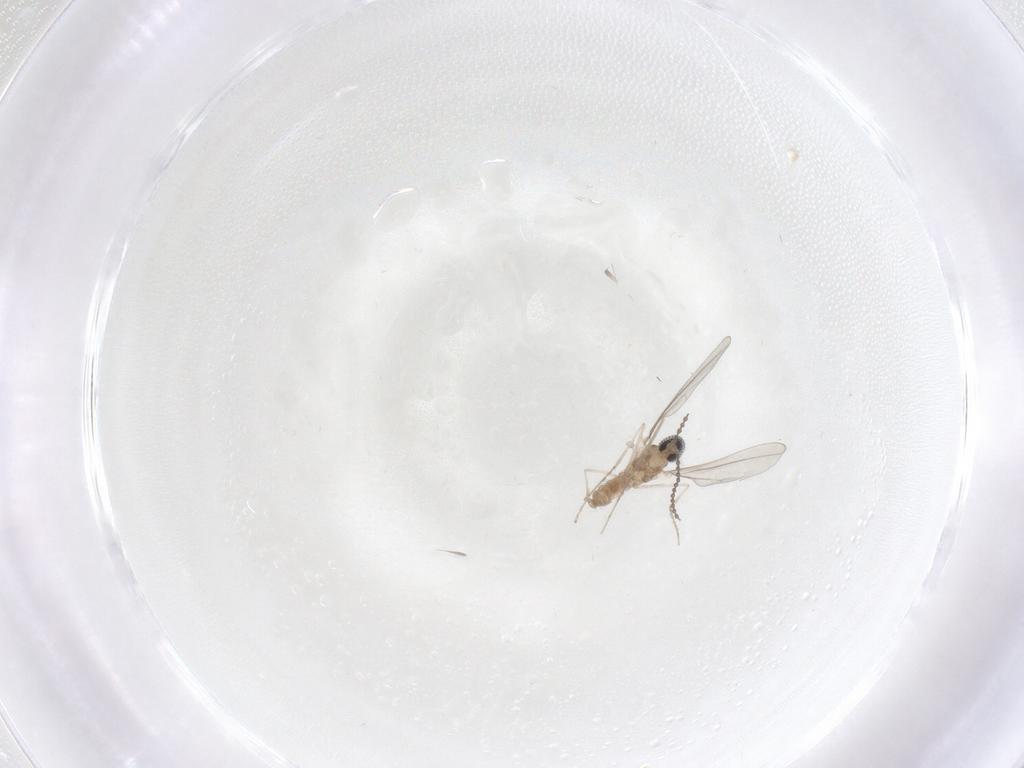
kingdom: Animalia
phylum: Arthropoda
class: Insecta
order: Diptera
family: Cecidomyiidae
